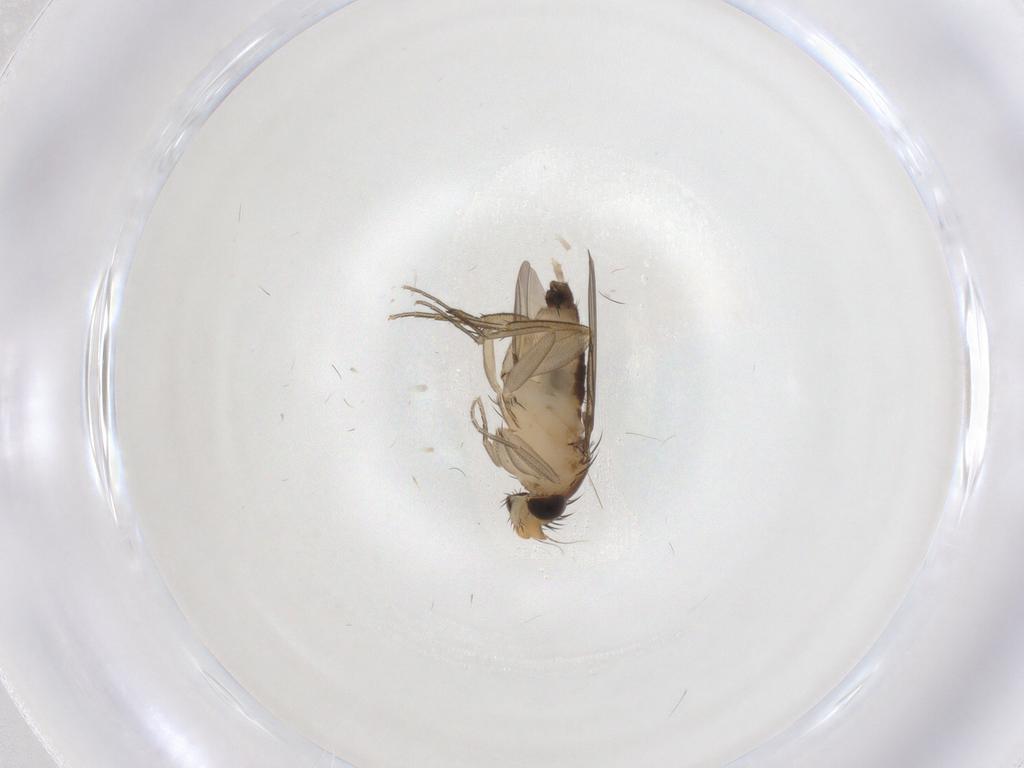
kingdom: Animalia
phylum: Arthropoda
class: Insecta
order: Diptera
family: Phoridae
